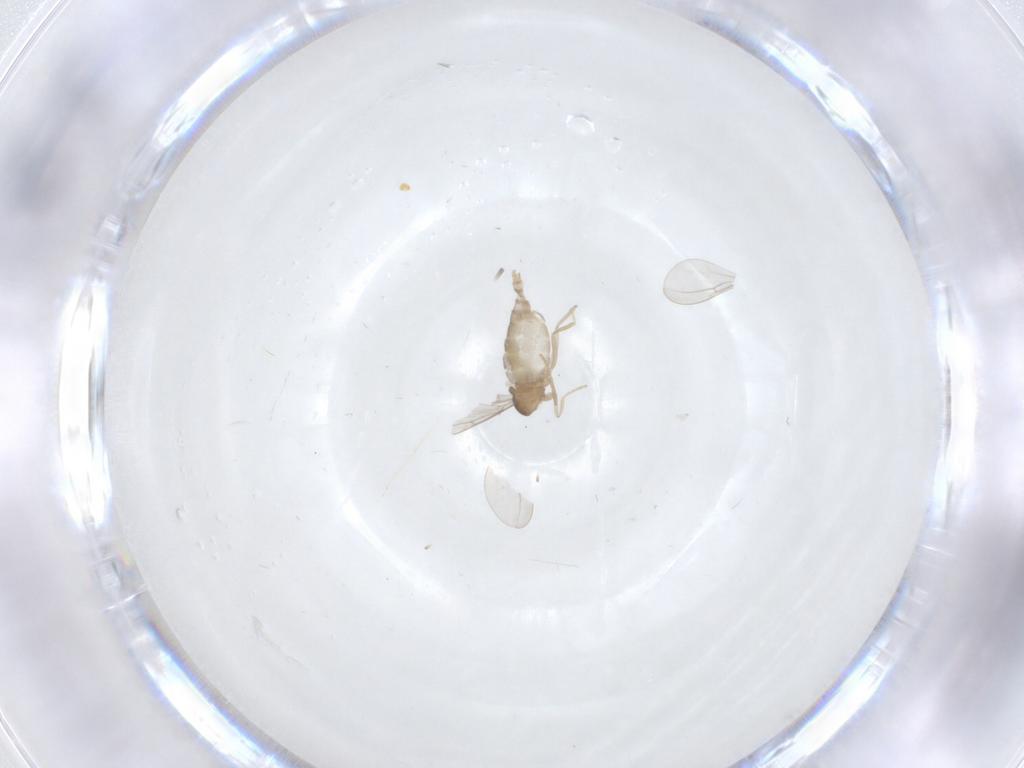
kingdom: Animalia
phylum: Arthropoda
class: Insecta
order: Diptera
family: Cecidomyiidae
